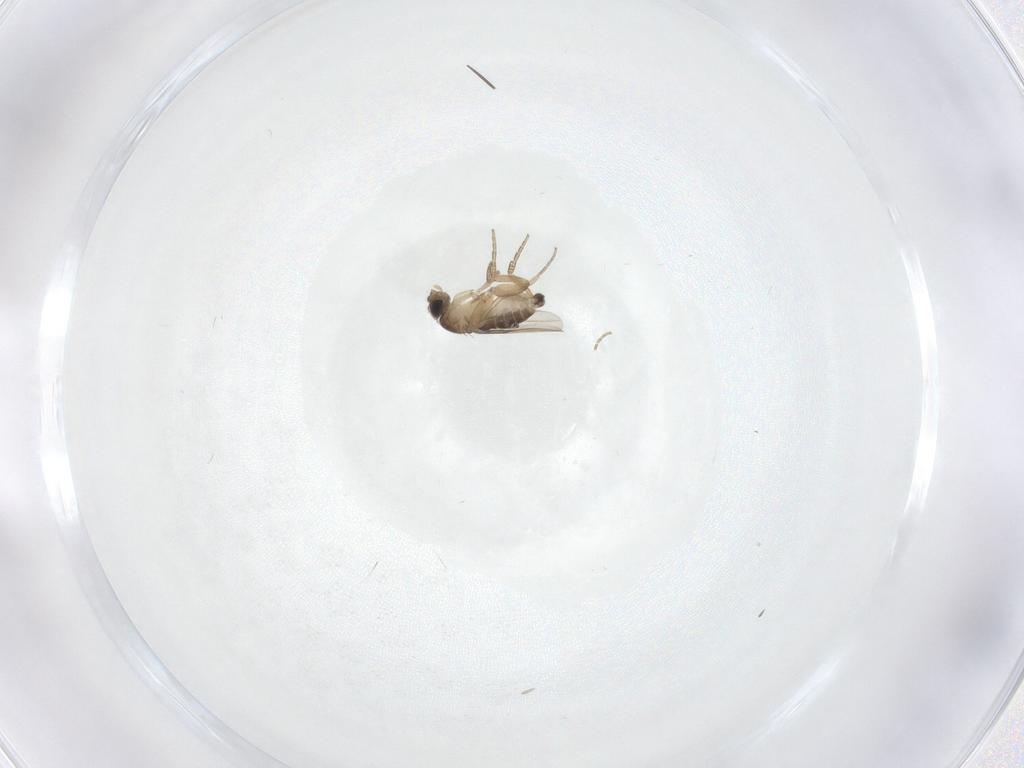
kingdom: Animalia
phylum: Arthropoda
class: Insecta
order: Diptera
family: Phoridae
